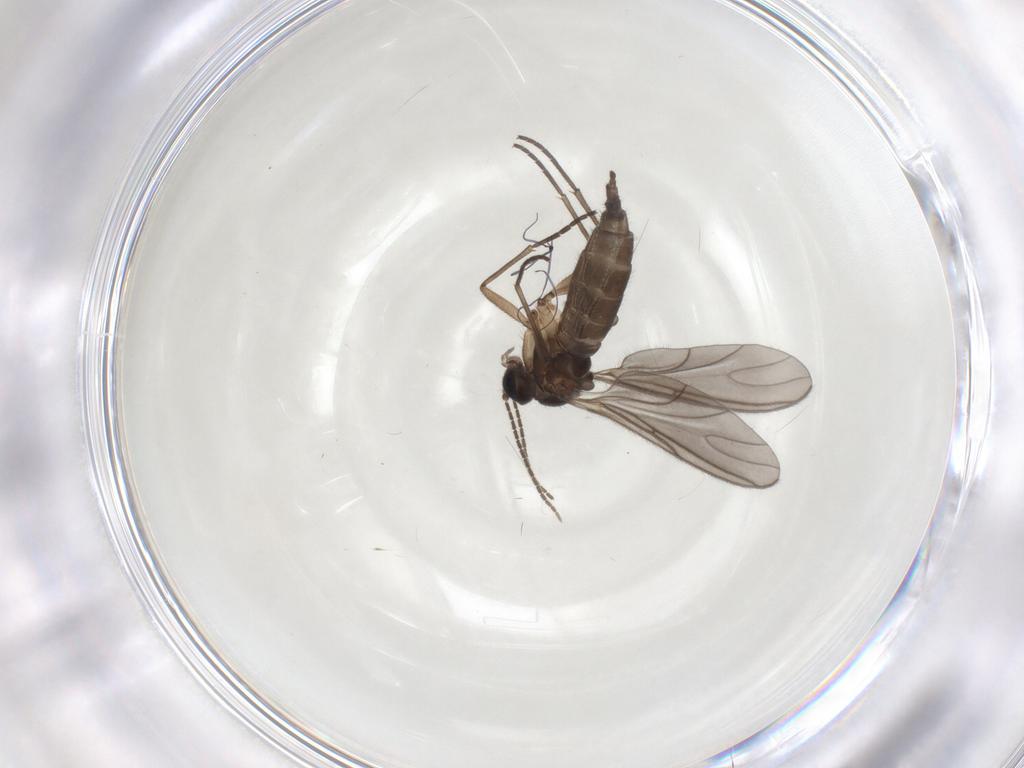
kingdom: Animalia
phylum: Arthropoda
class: Insecta
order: Diptera
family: Sciaridae
